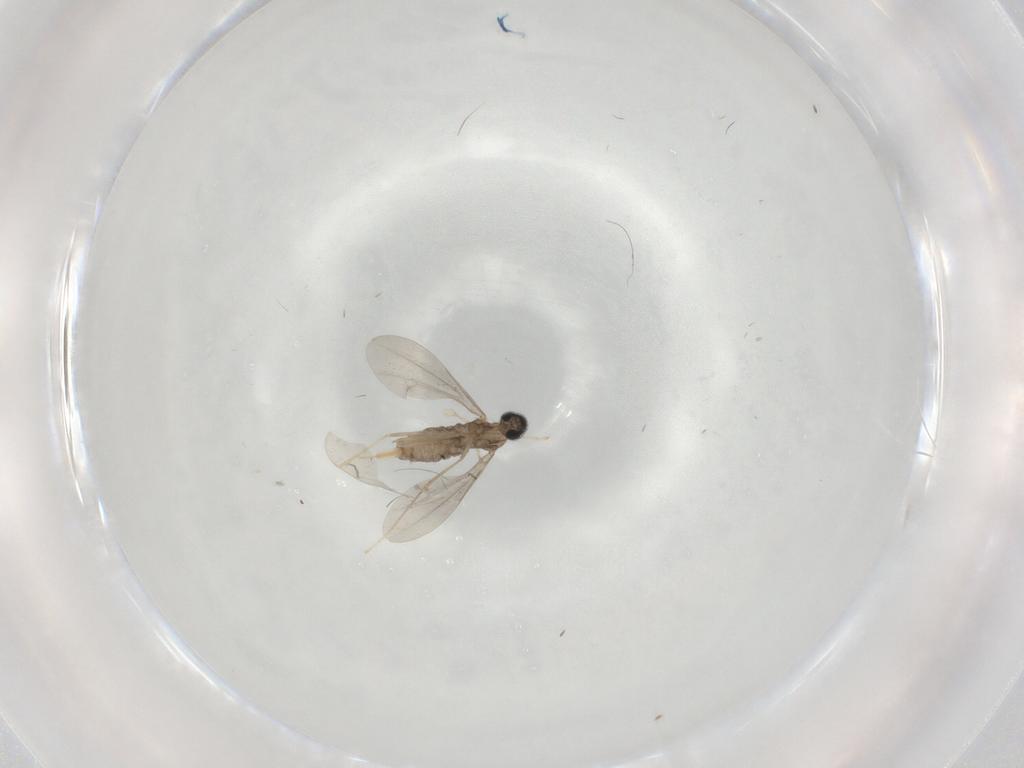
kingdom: Animalia
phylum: Arthropoda
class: Insecta
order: Diptera
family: Cecidomyiidae
